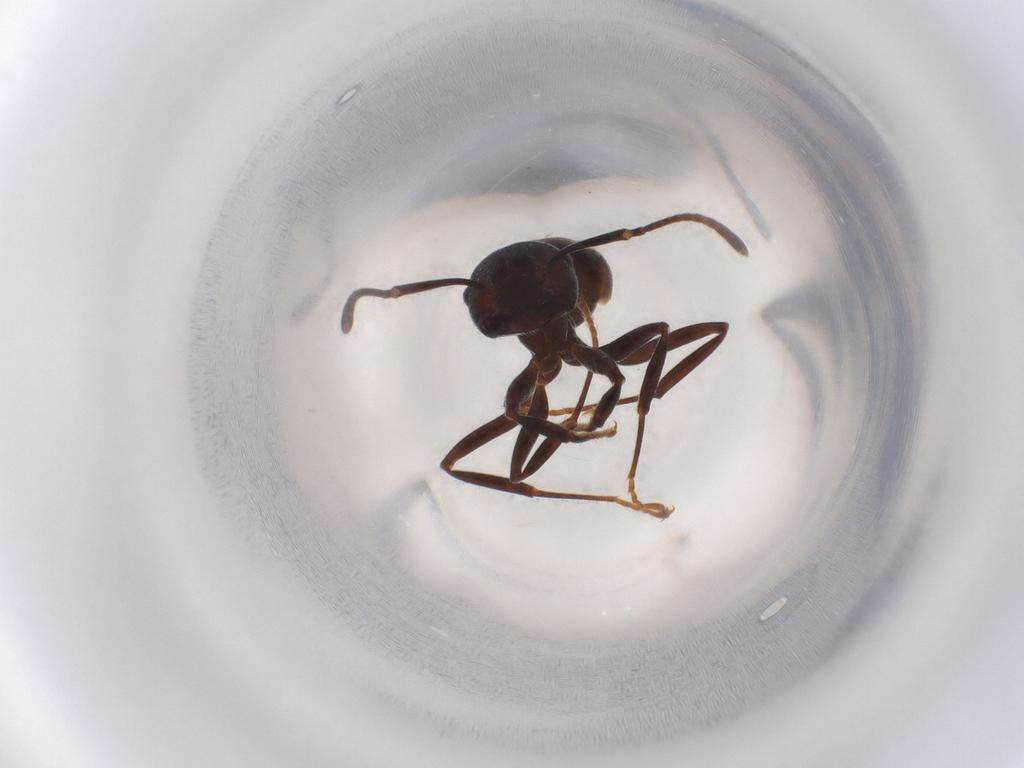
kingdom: Animalia
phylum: Arthropoda
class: Insecta
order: Hymenoptera
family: Formicidae
